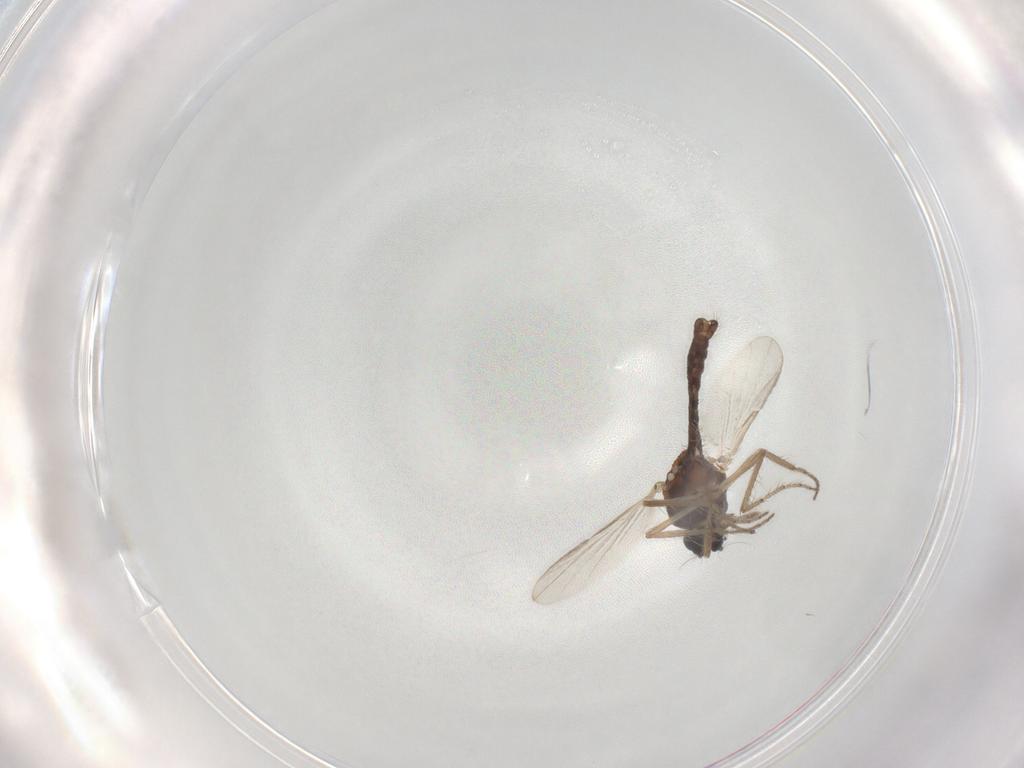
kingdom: Animalia
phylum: Arthropoda
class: Insecta
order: Diptera
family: Ceratopogonidae
